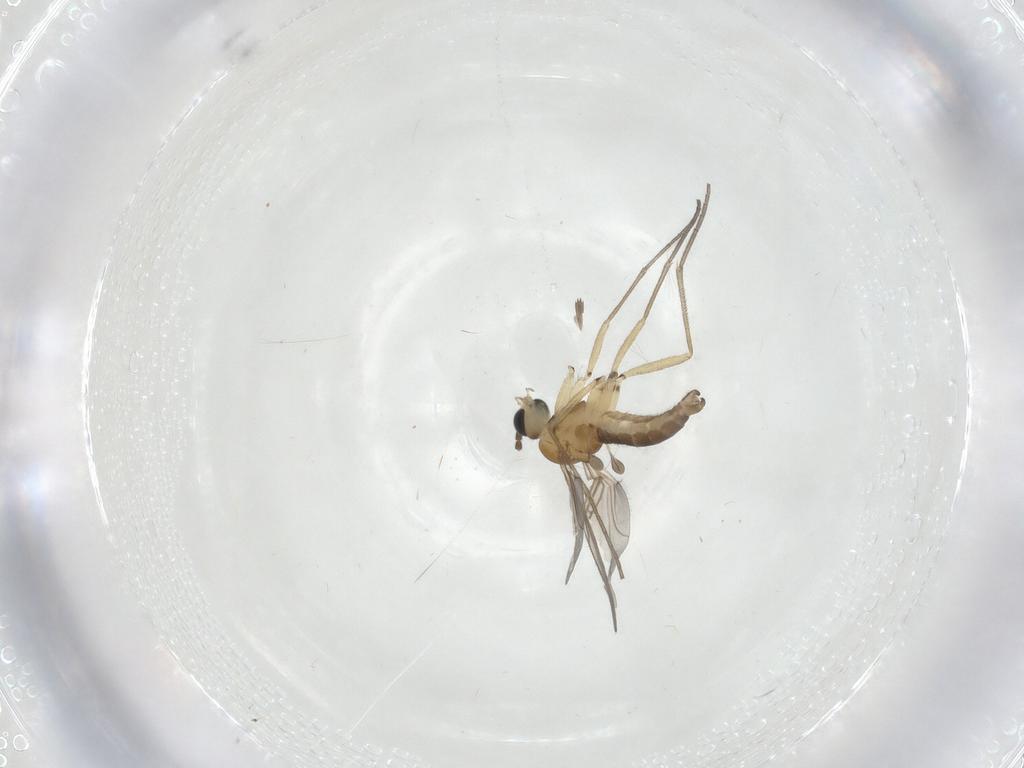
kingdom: Animalia
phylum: Arthropoda
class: Insecta
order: Diptera
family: Sciaridae
